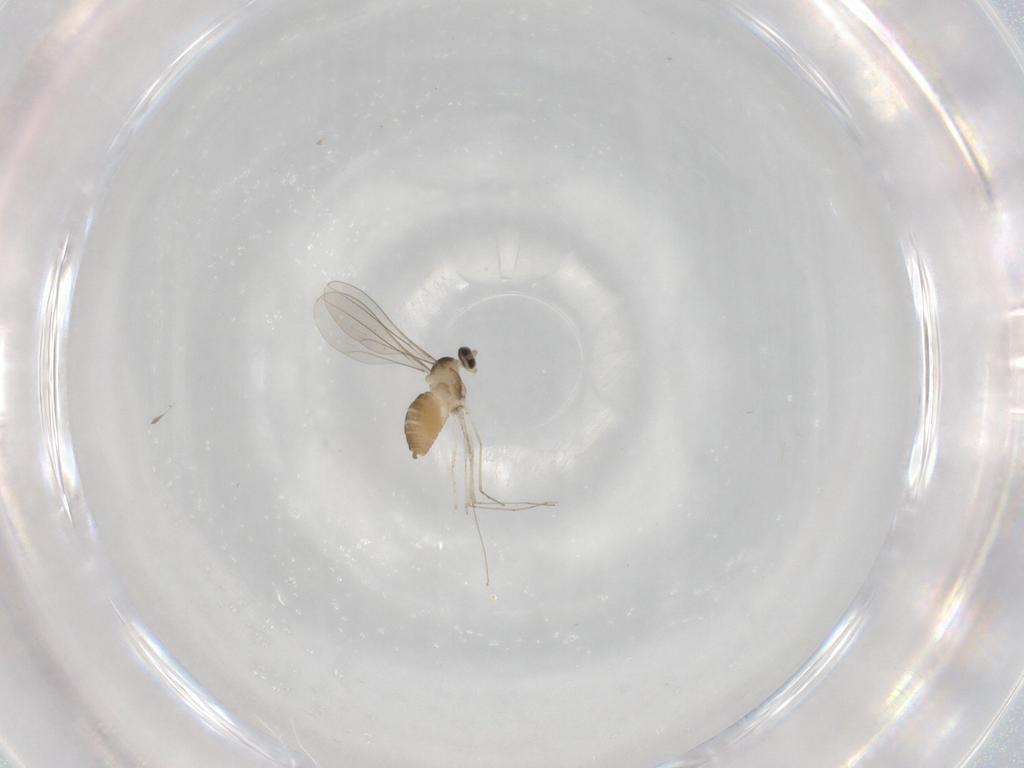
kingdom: Animalia
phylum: Arthropoda
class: Insecta
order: Diptera
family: Cecidomyiidae
